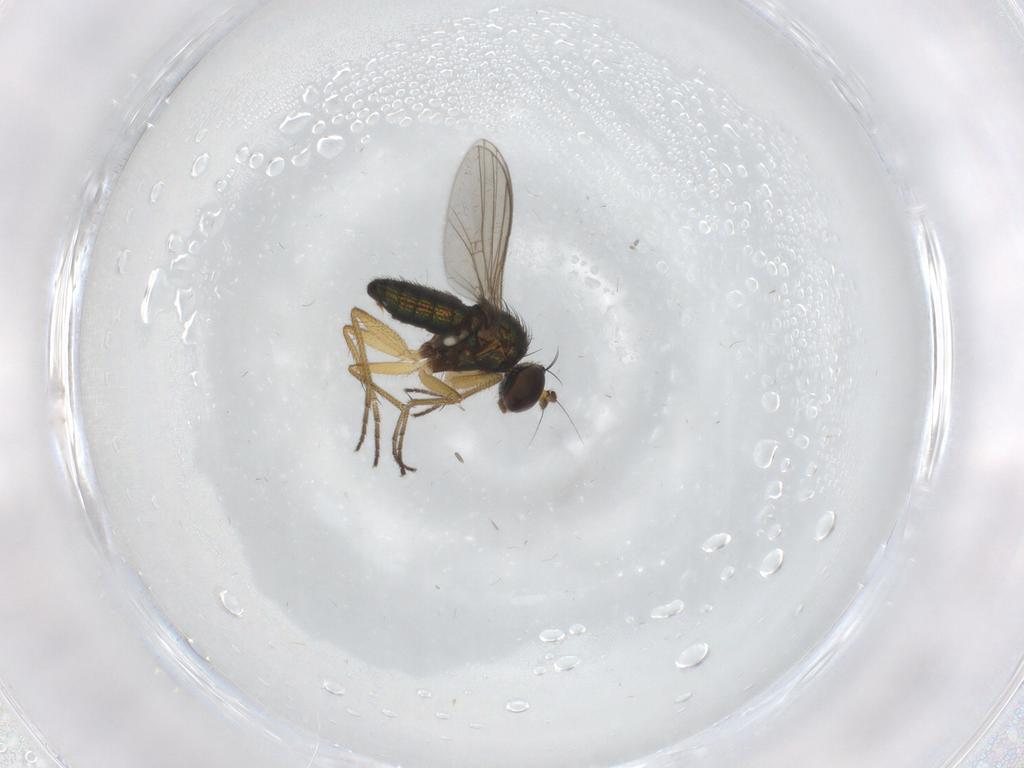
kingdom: Animalia
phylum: Arthropoda
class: Insecta
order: Diptera
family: Ceratopogonidae
